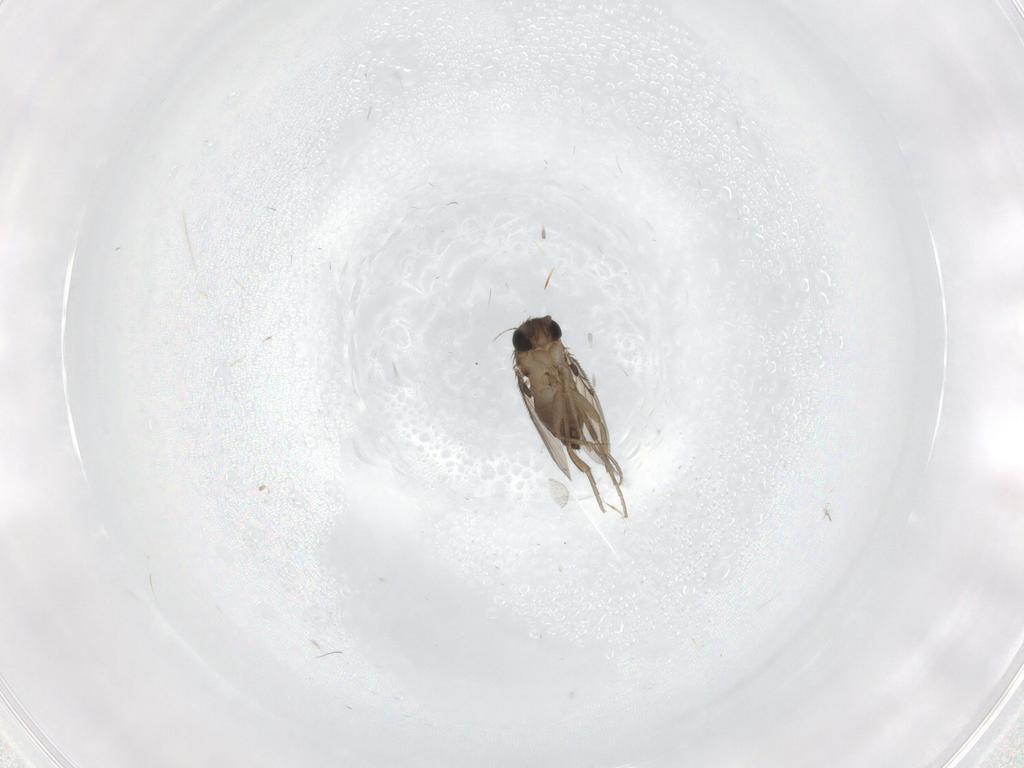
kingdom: Animalia
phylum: Arthropoda
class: Insecta
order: Diptera
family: Phoridae
